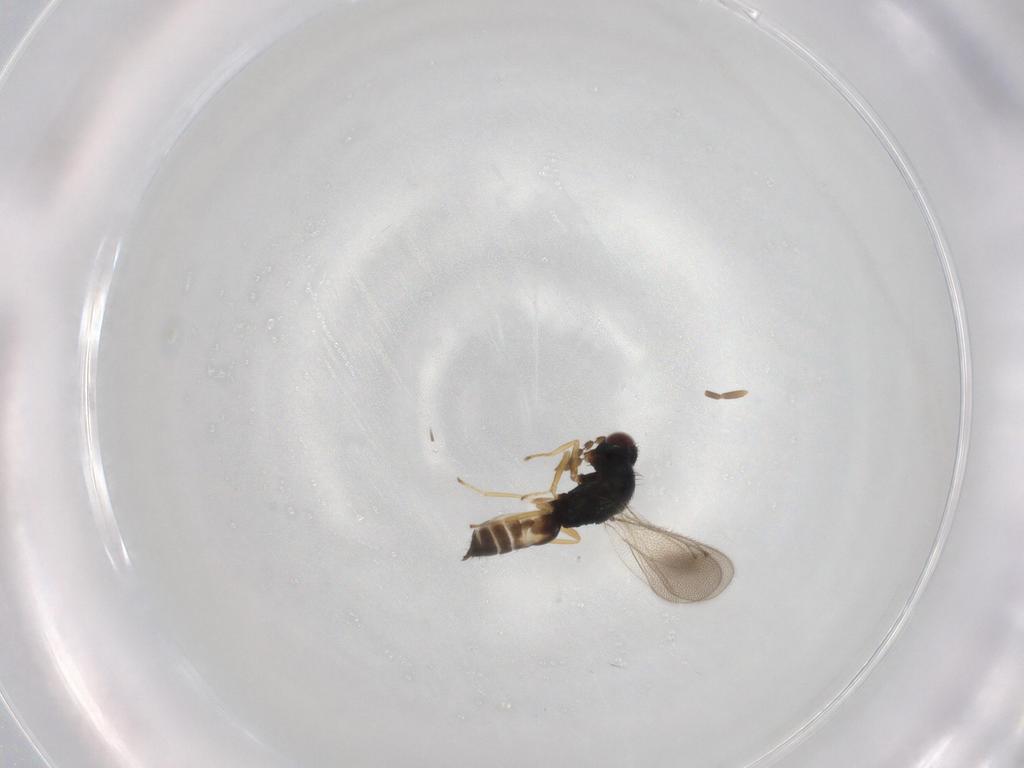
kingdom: Animalia
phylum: Arthropoda
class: Insecta
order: Hymenoptera
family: Eulophidae
